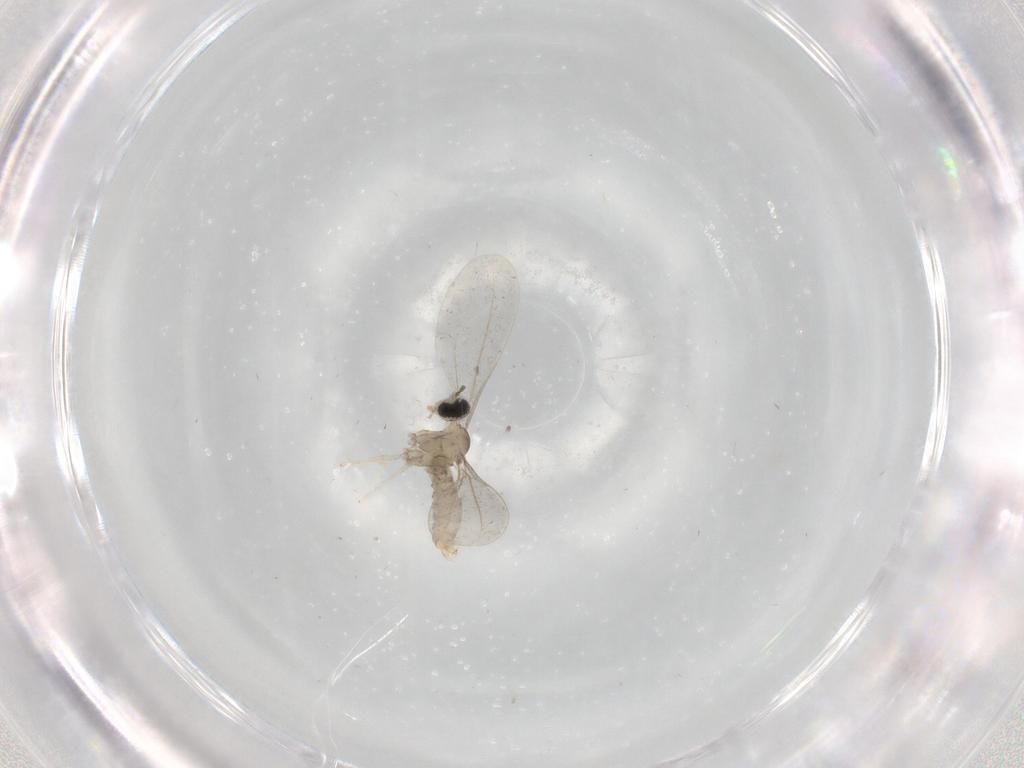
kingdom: Animalia
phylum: Arthropoda
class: Insecta
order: Diptera
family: Cecidomyiidae
